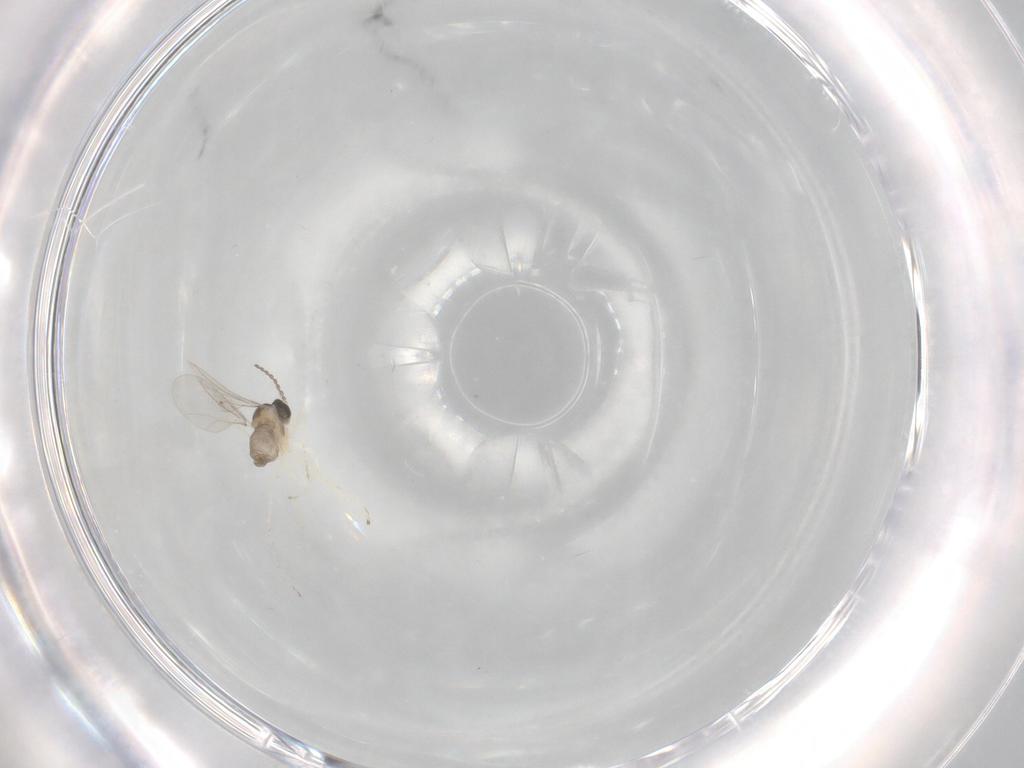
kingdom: Animalia
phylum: Arthropoda
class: Insecta
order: Diptera
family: Cecidomyiidae
